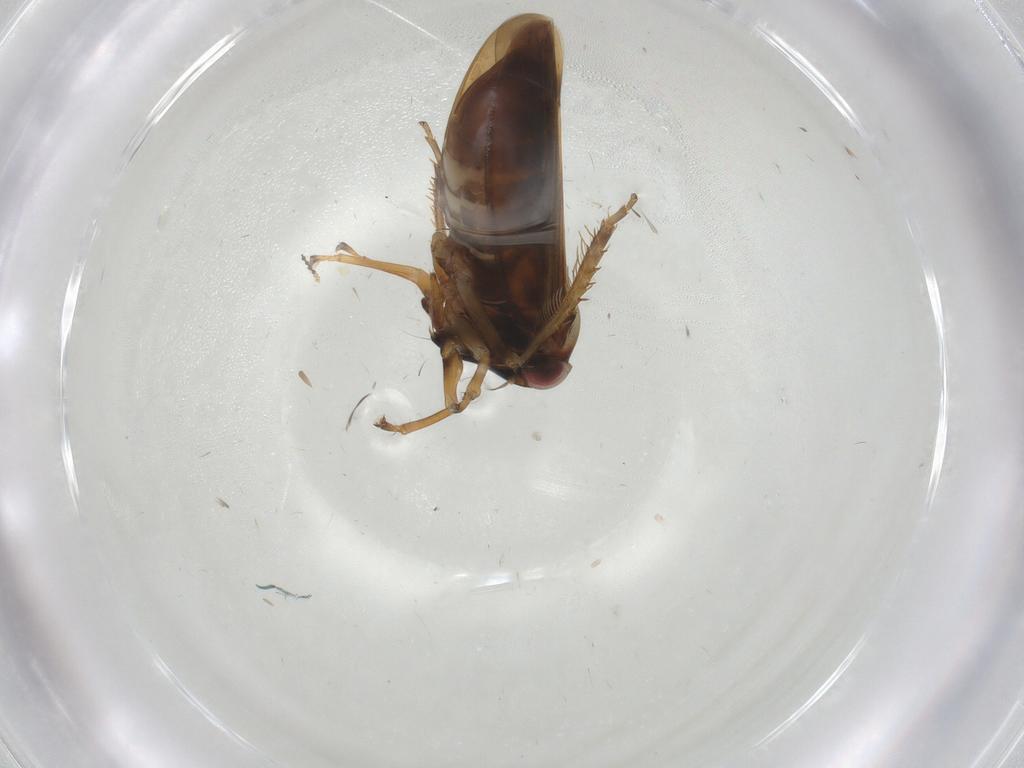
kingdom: Animalia
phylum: Arthropoda
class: Insecta
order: Hemiptera
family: Cicadellidae
